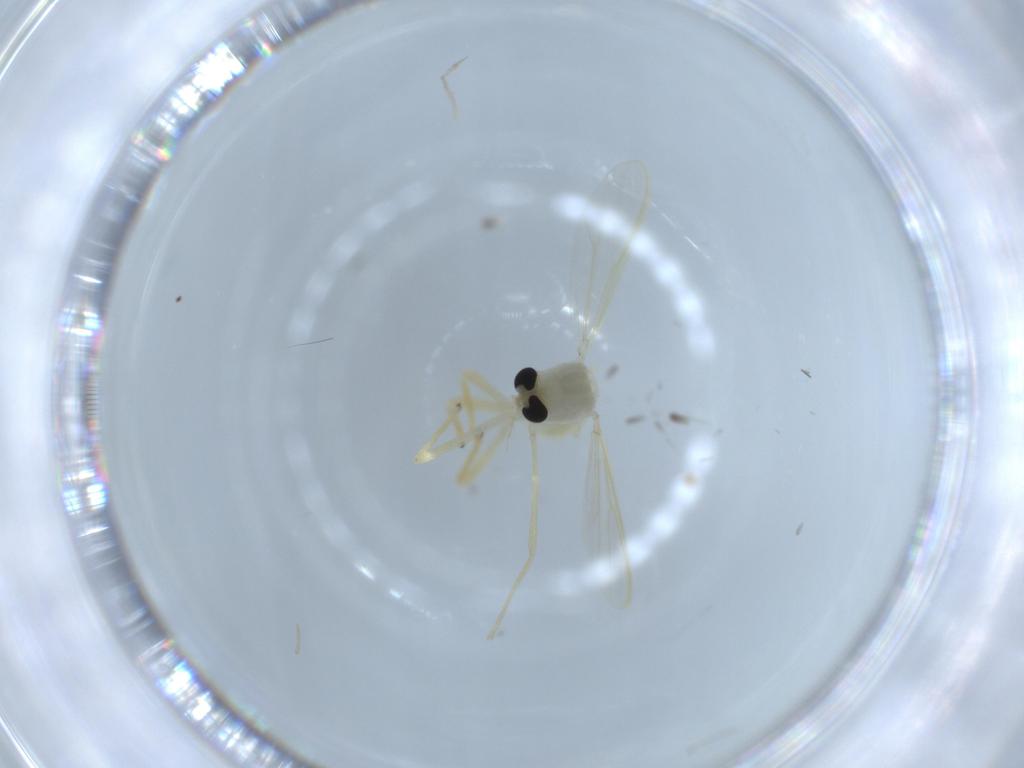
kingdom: Animalia
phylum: Arthropoda
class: Insecta
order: Diptera
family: Chironomidae
